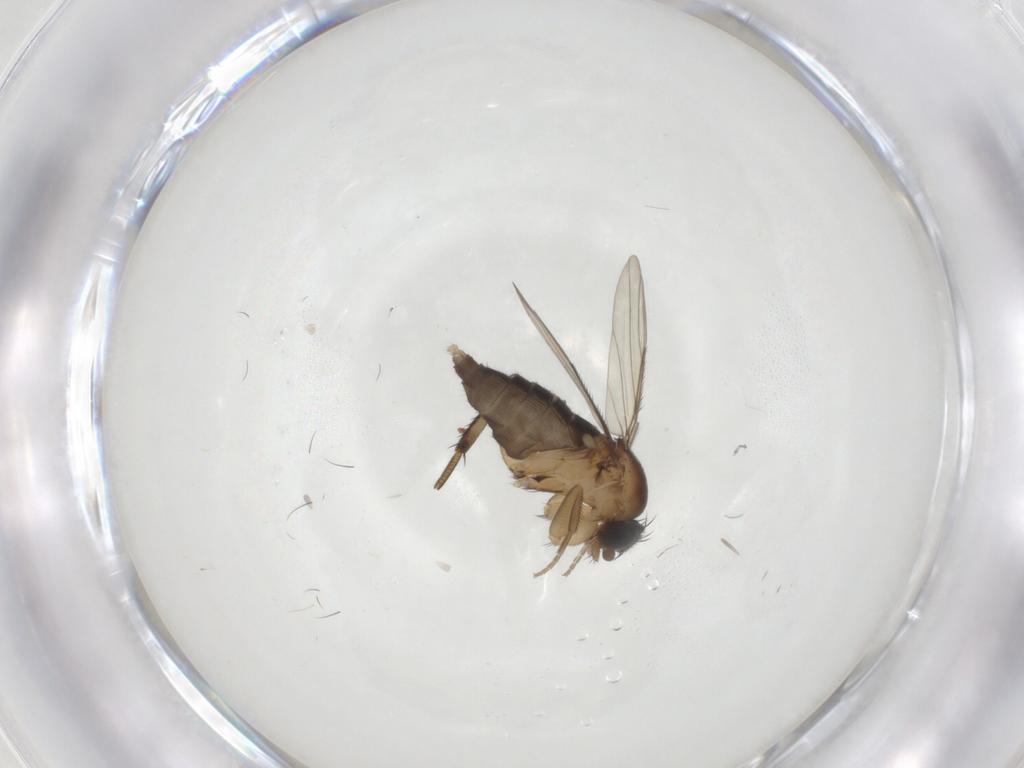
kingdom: Animalia
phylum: Arthropoda
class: Insecta
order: Diptera
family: Phoridae
